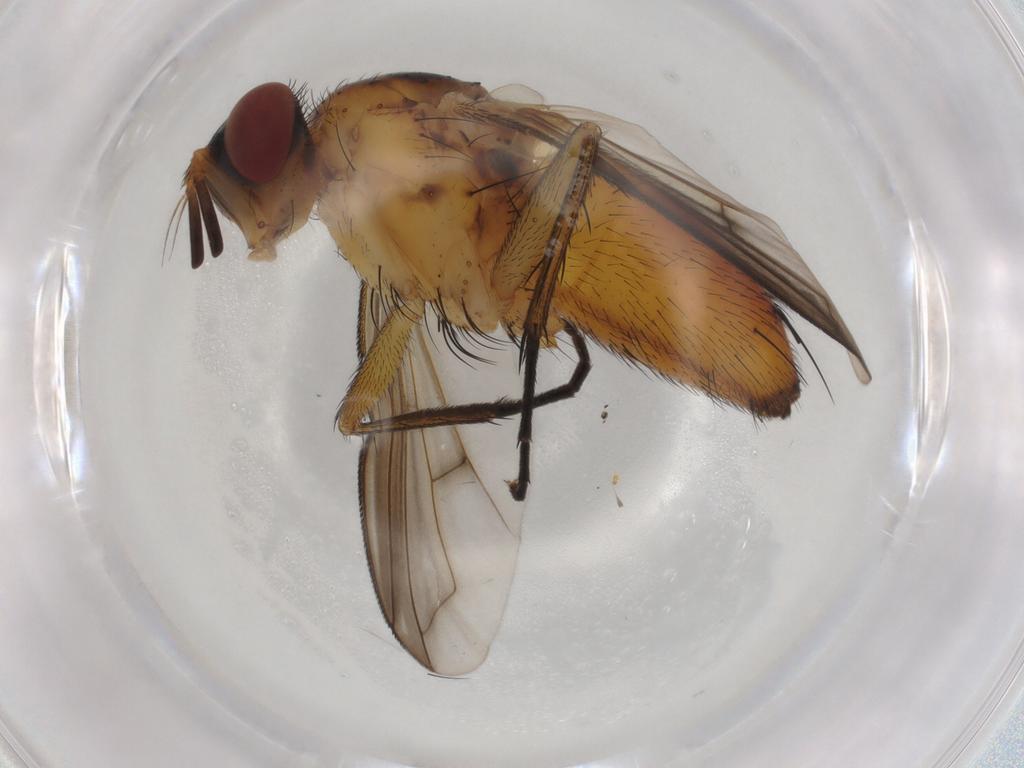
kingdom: Animalia
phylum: Arthropoda
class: Insecta
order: Diptera
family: Tachinidae
